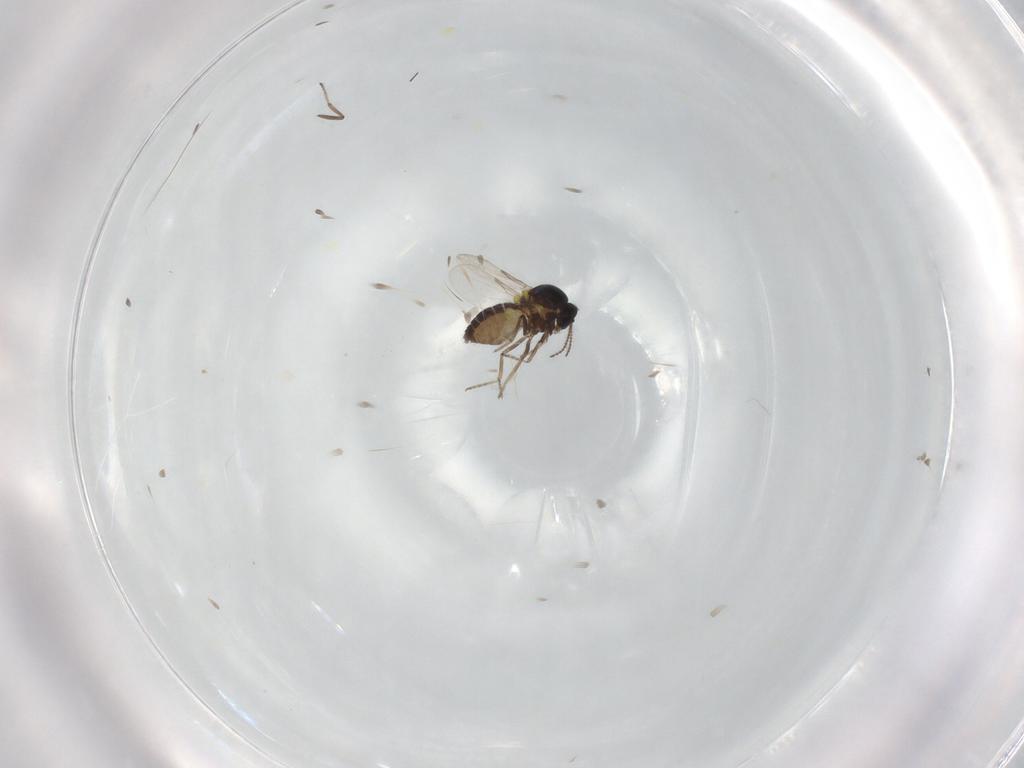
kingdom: Animalia
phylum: Arthropoda
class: Insecta
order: Diptera
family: Ceratopogonidae
